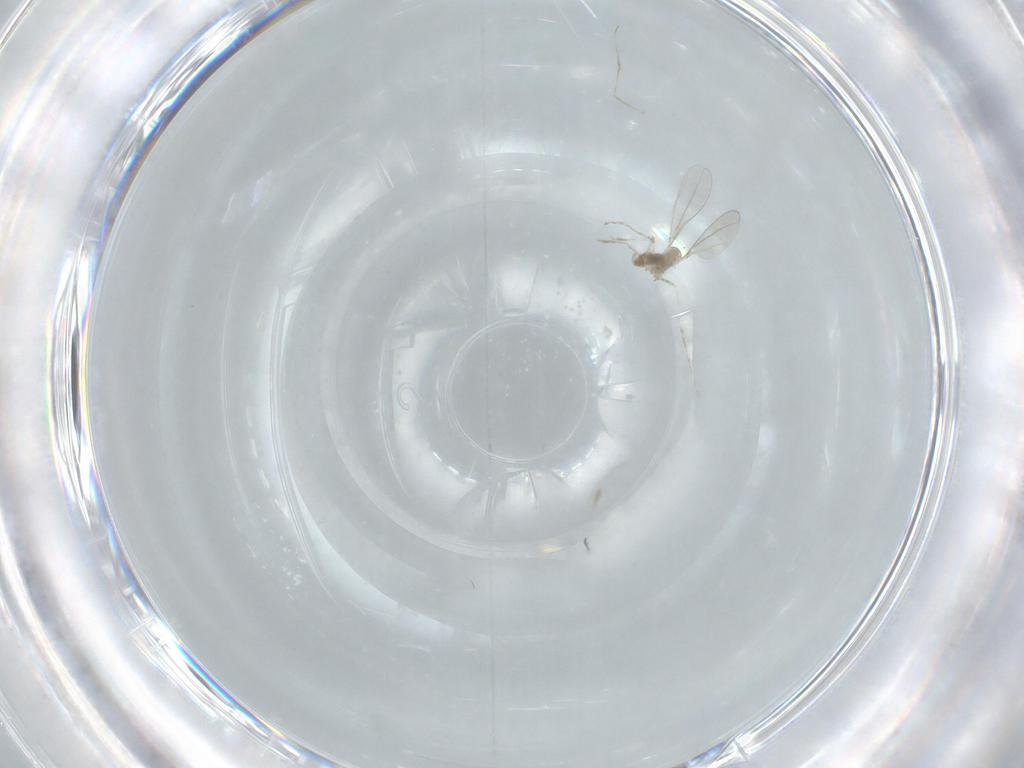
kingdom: Animalia
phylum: Arthropoda
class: Insecta
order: Diptera
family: Cecidomyiidae
